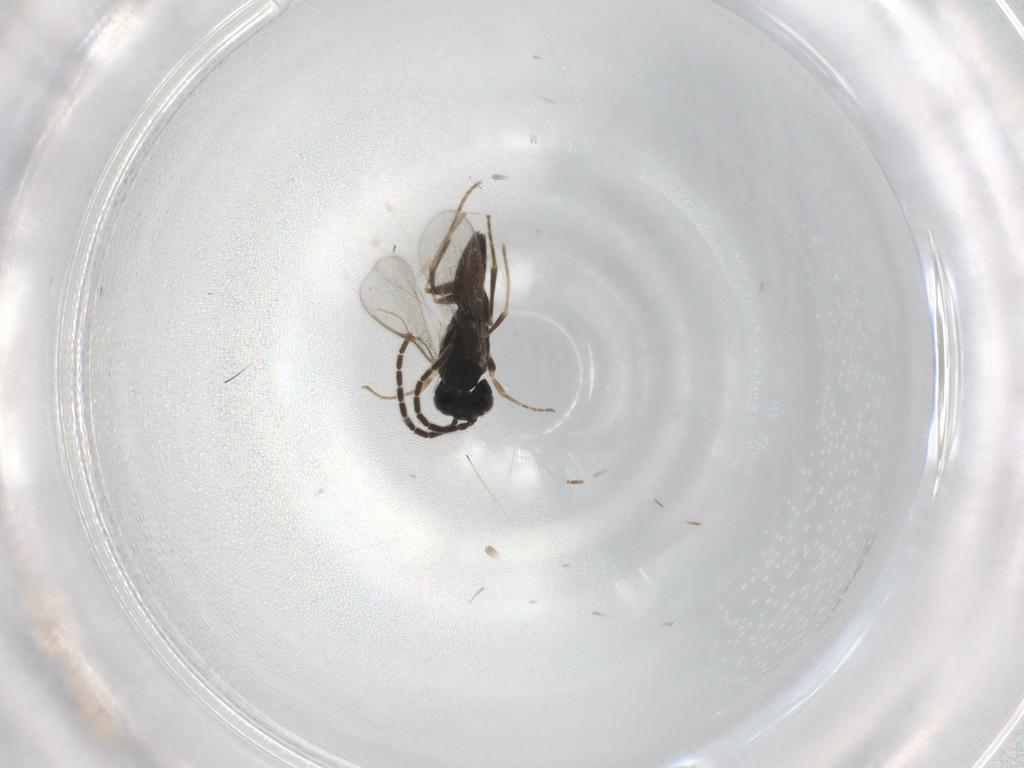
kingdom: Animalia
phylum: Arthropoda
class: Insecta
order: Hymenoptera
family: Dryinidae
